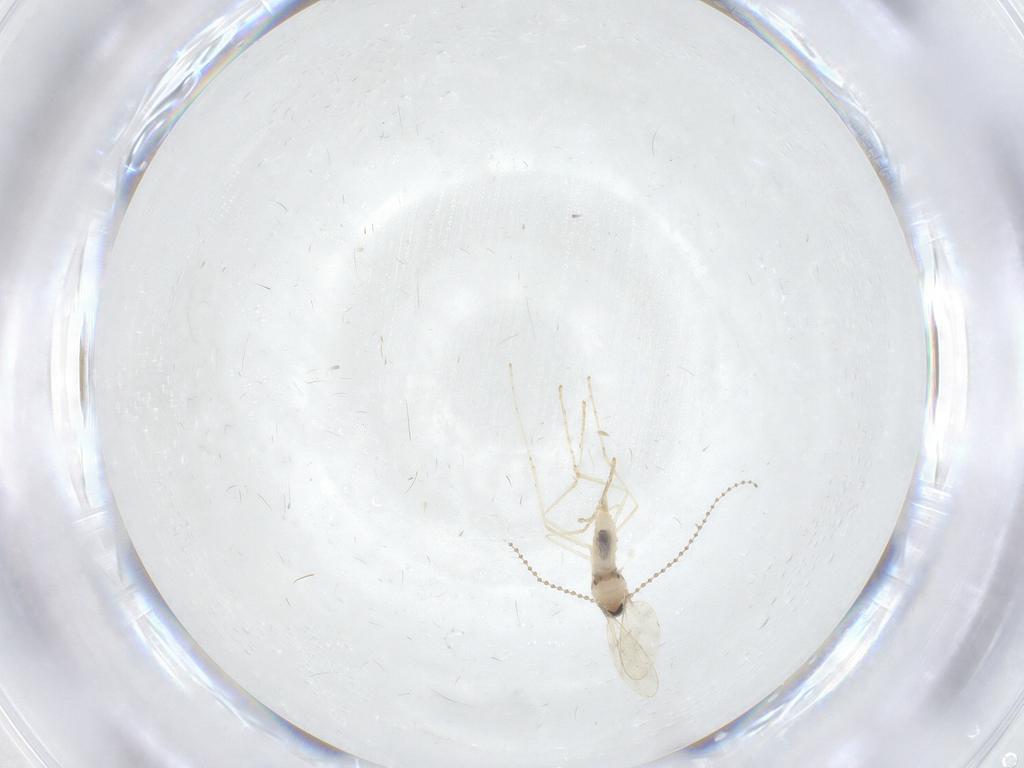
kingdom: Animalia
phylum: Arthropoda
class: Insecta
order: Diptera
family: Cecidomyiidae
